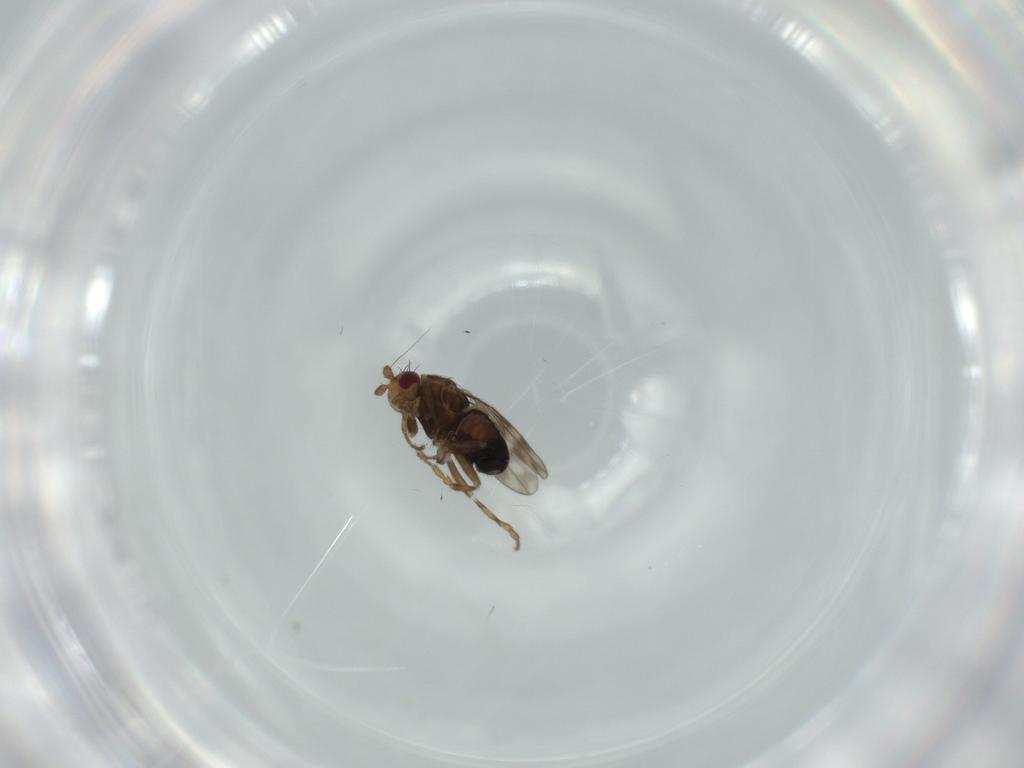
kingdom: Animalia
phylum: Arthropoda
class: Insecta
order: Diptera
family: Sphaeroceridae
